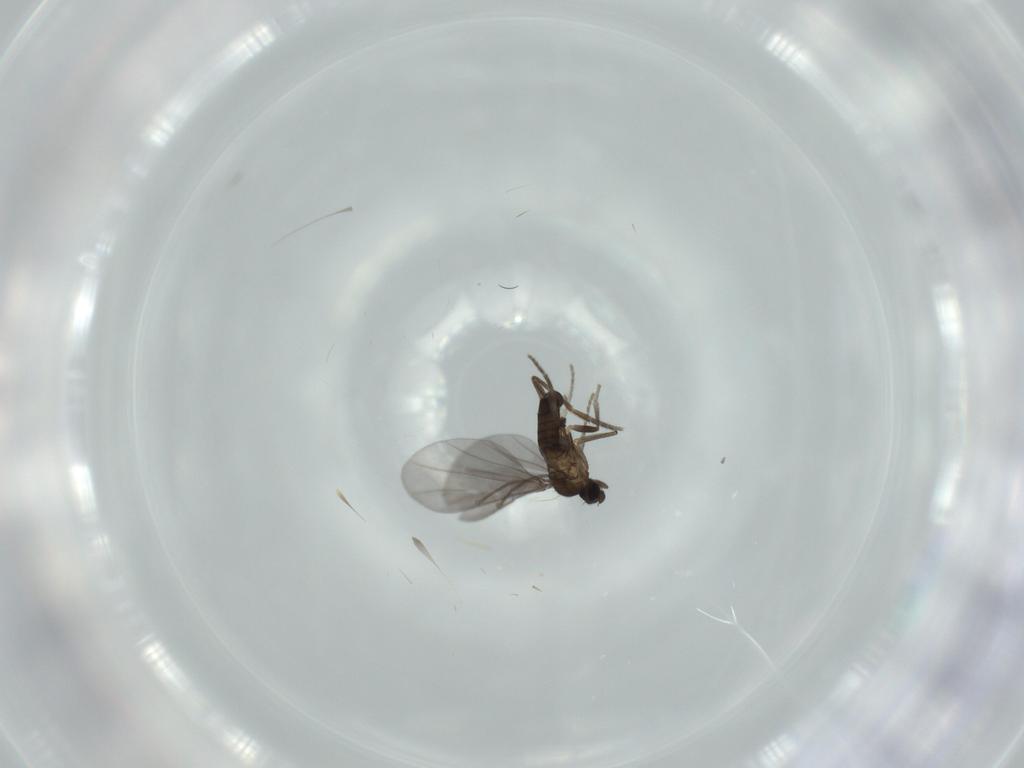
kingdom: Animalia
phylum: Arthropoda
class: Insecta
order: Diptera
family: Phoridae
